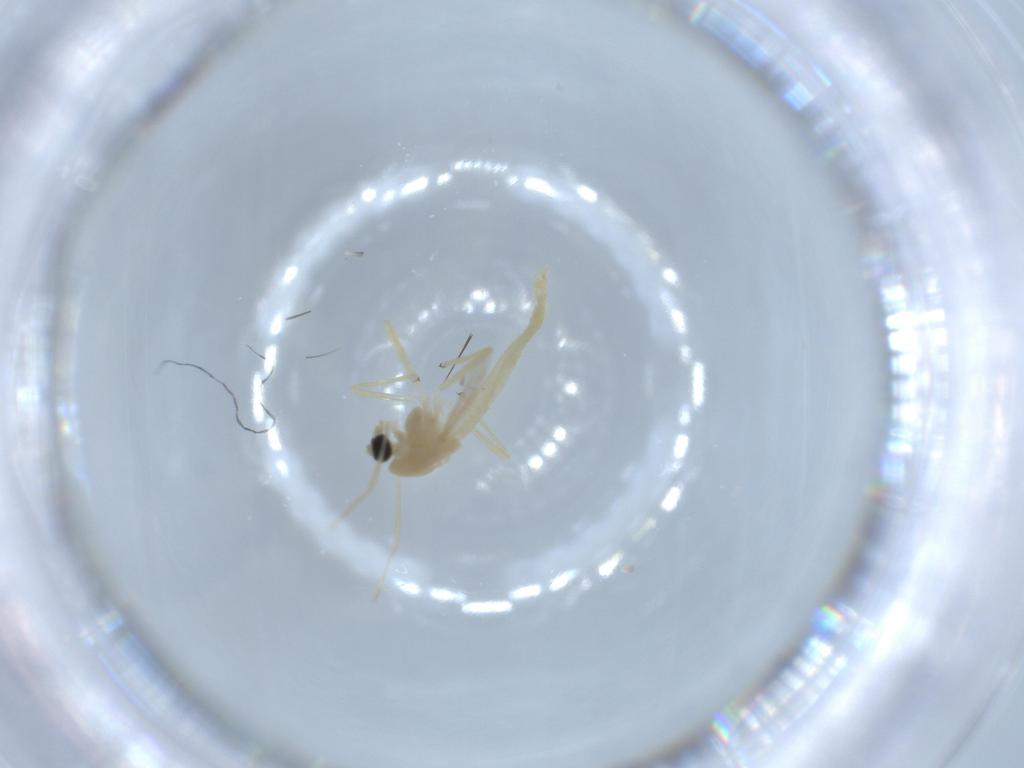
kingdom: Animalia
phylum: Arthropoda
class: Insecta
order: Diptera
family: Chironomidae
